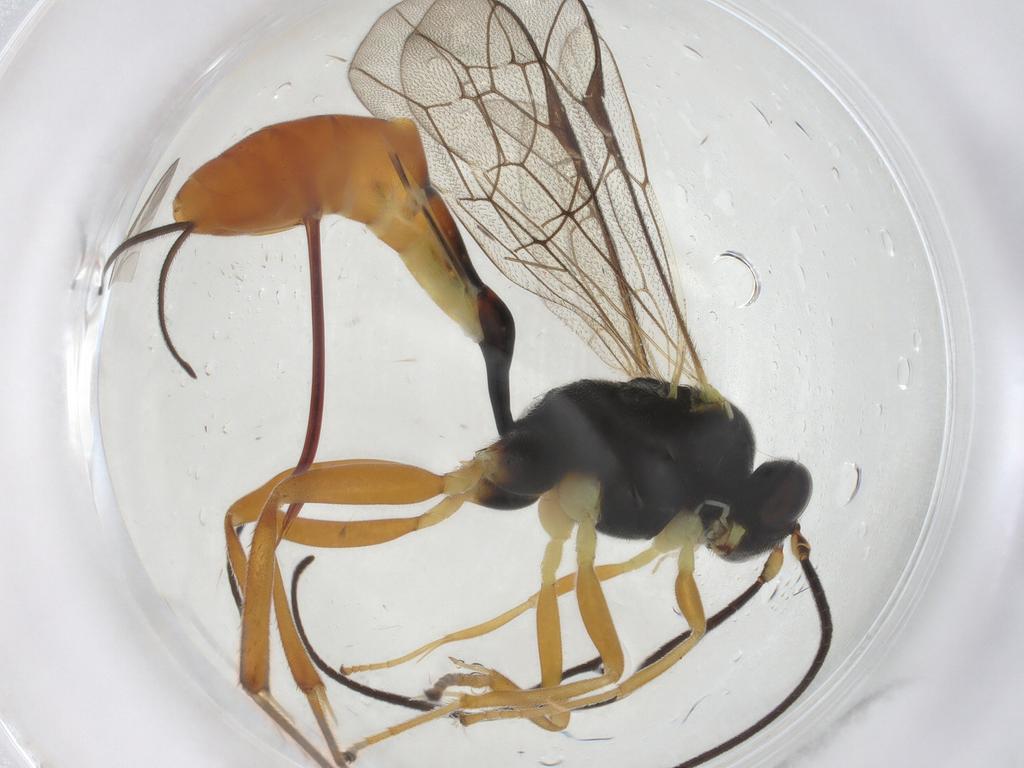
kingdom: Animalia
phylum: Arthropoda
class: Insecta
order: Hymenoptera
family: Ichneumonidae
